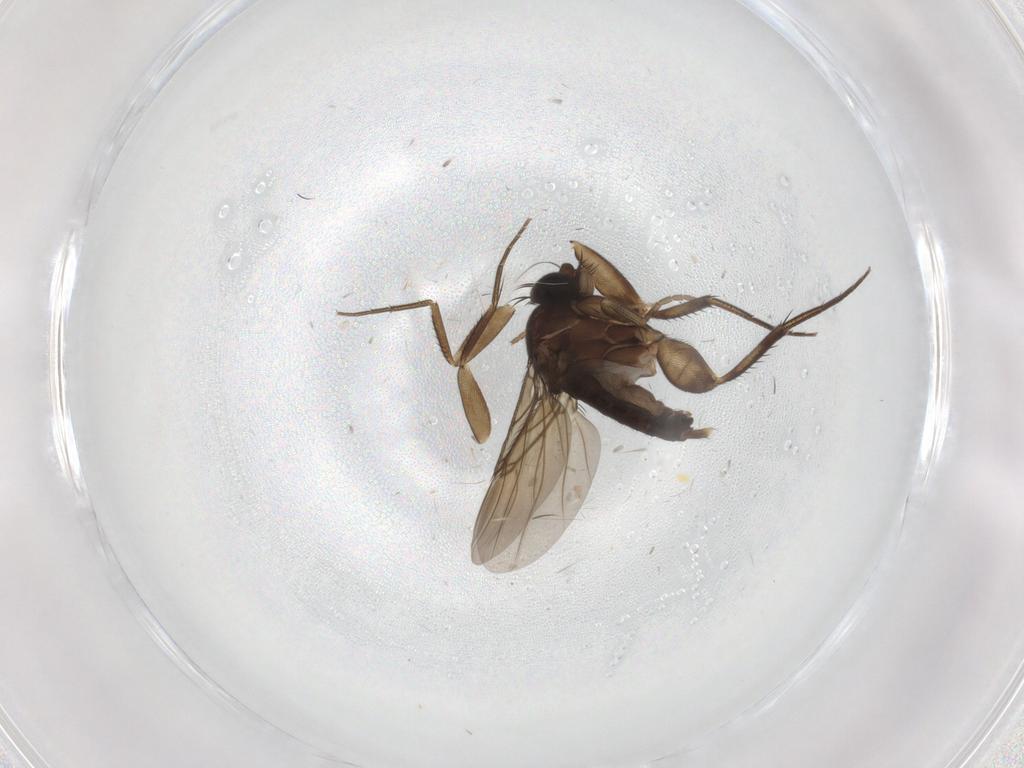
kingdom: Animalia
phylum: Arthropoda
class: Insecta
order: Diptera
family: Phoridae
